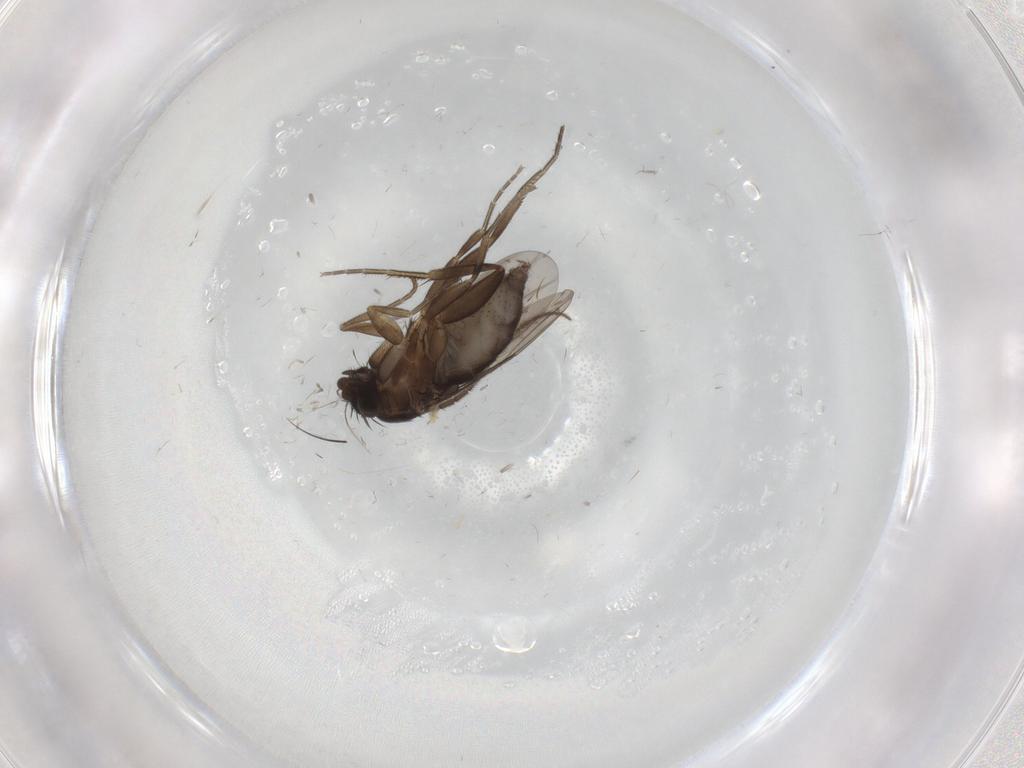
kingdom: Animalia
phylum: Arthropoda
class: Insecta
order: Diptera
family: Phoridae
